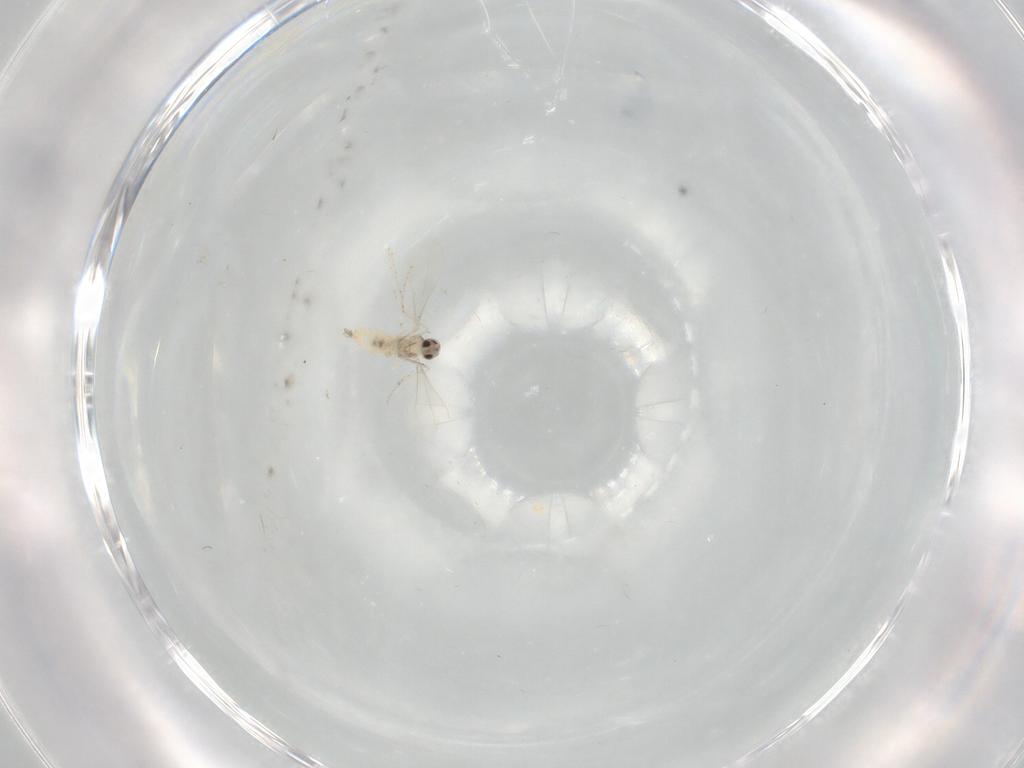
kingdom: Animalia
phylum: Arthropoda
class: Insecta
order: Diptera
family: Cecidomyiidae
